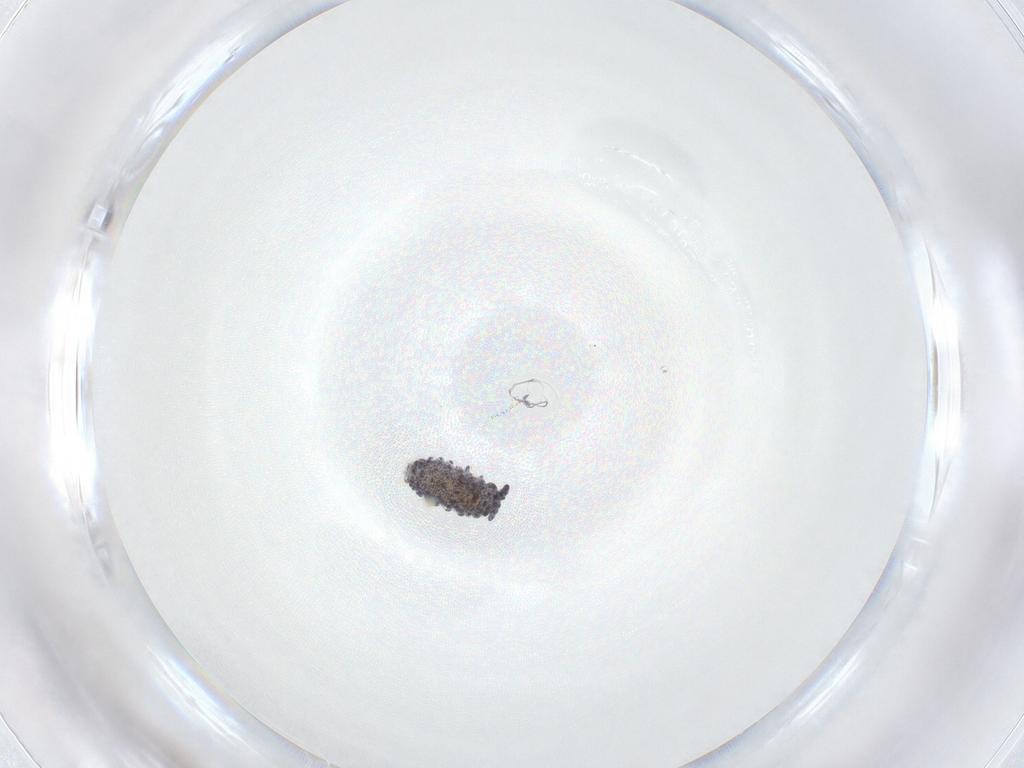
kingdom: Animalia
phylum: Arthropoda
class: Collembola
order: Poduromorpha
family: Neanuridae
